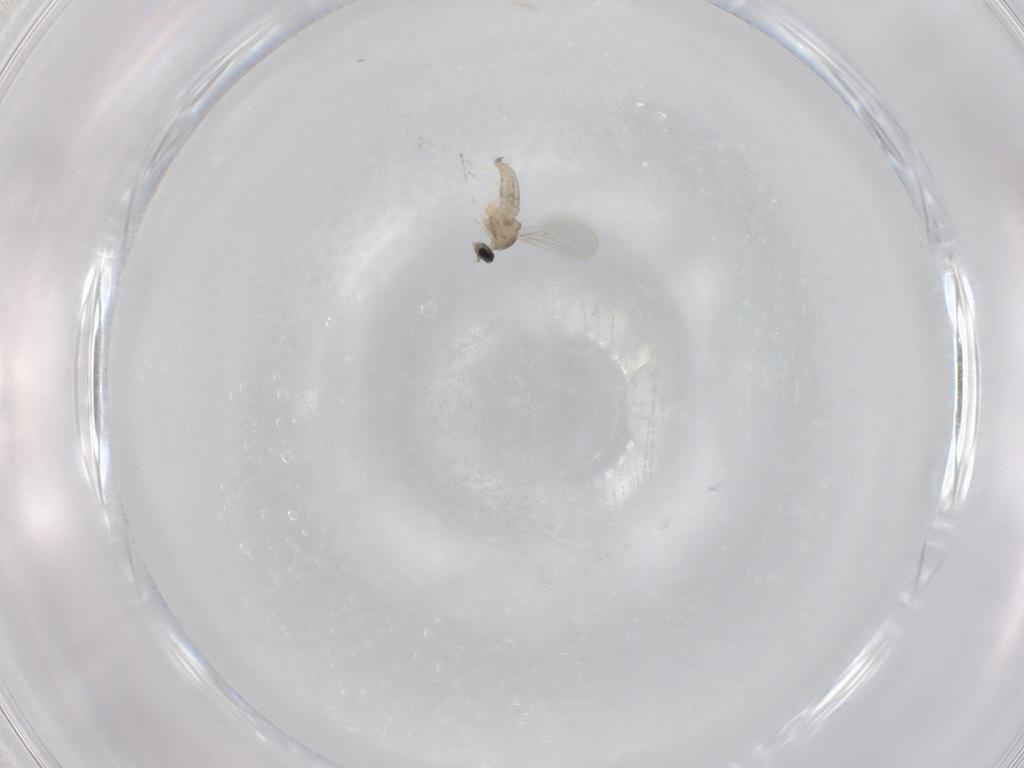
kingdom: Animalia
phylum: Arthropoda
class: Insecta
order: Diptera
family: Cecidomyiidae
